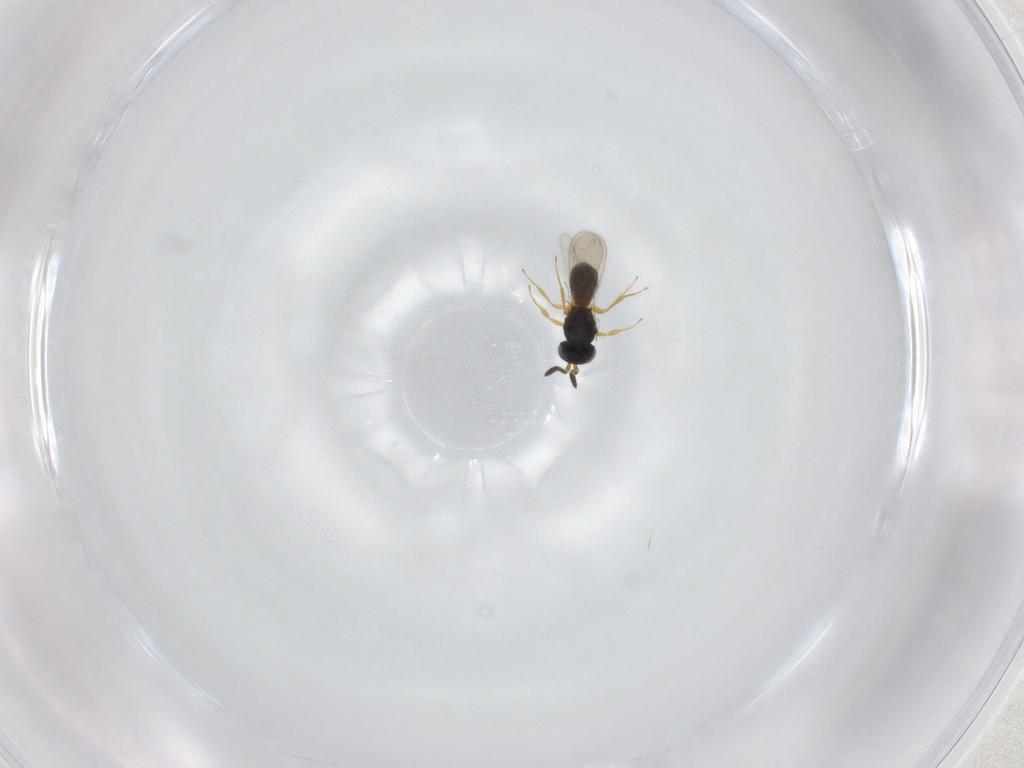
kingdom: Animalia
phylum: Arthropoda
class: Insecta
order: Hymenoptera
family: Scelionidae
